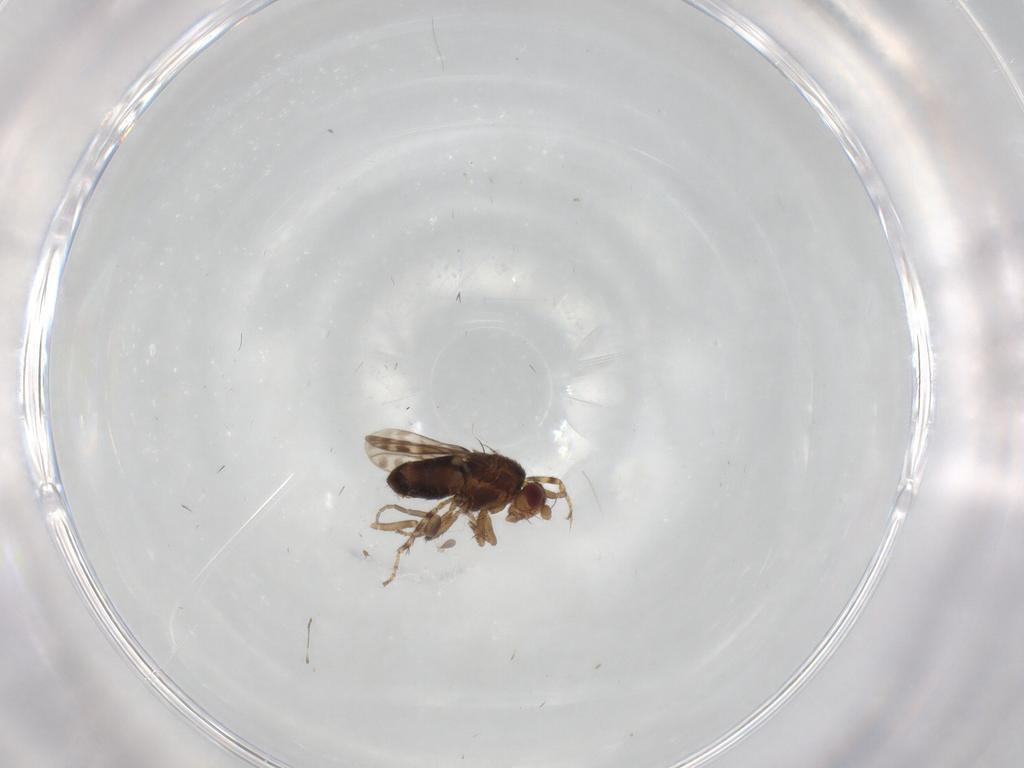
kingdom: Animalia
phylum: Arthropoda
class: Insecta
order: Diptera
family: Sphaeroceridae
